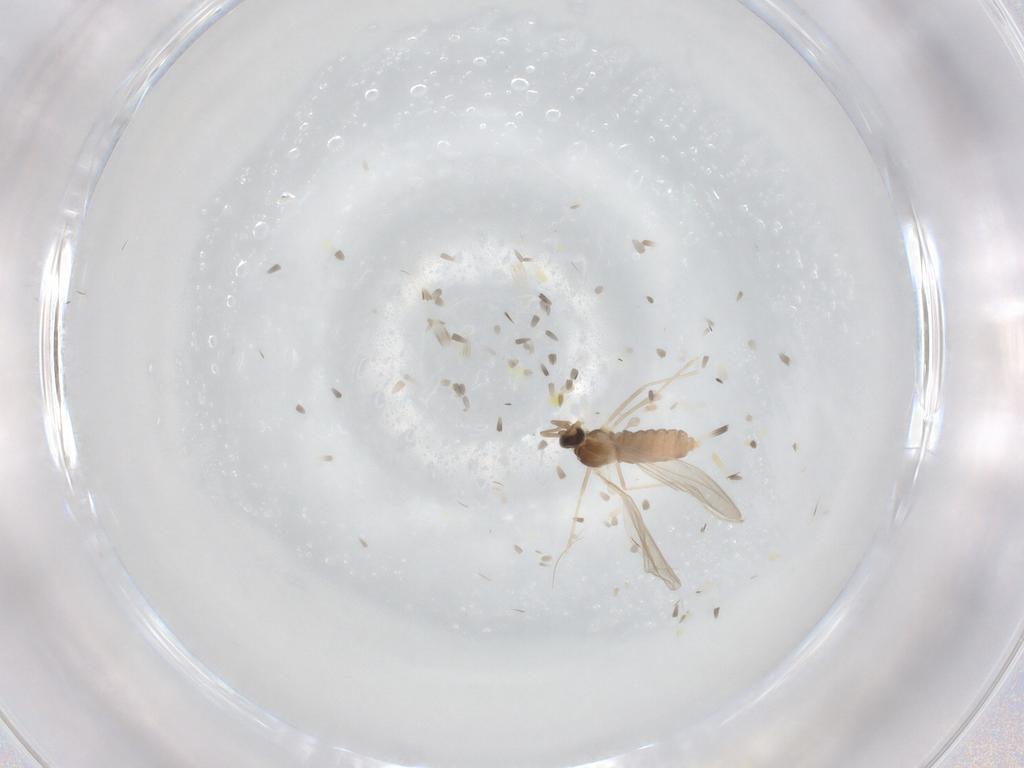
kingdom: Animalia
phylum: Arthropoda
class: Insecta
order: Diptera
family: Cecidomyiidae
